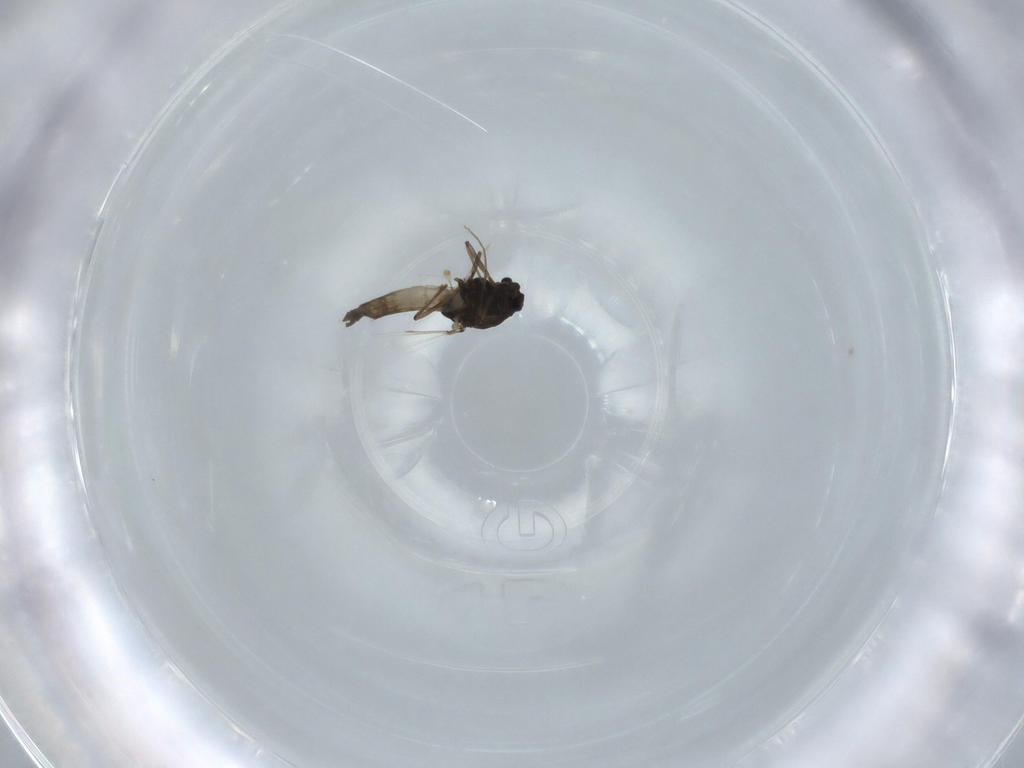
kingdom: Animalia
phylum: Arthropoda
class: Insecta
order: Diptera
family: Chironomidae
